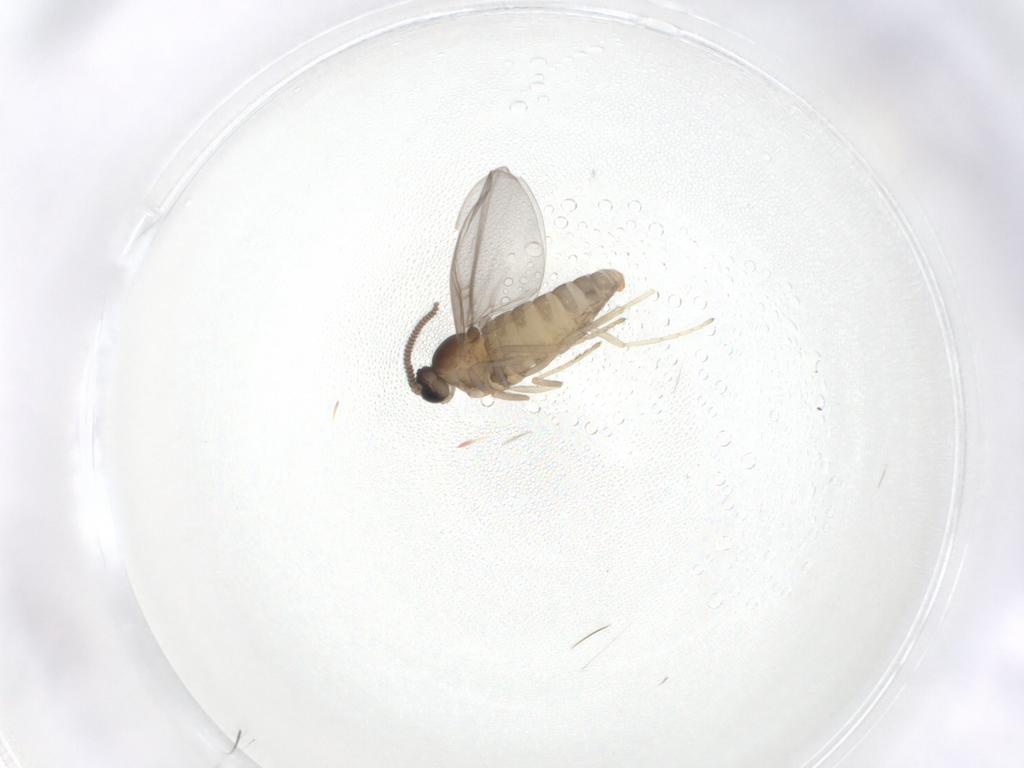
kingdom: Animalia
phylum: Arthropoda
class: Insecta
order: Diptera
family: Cecidomyiidae
